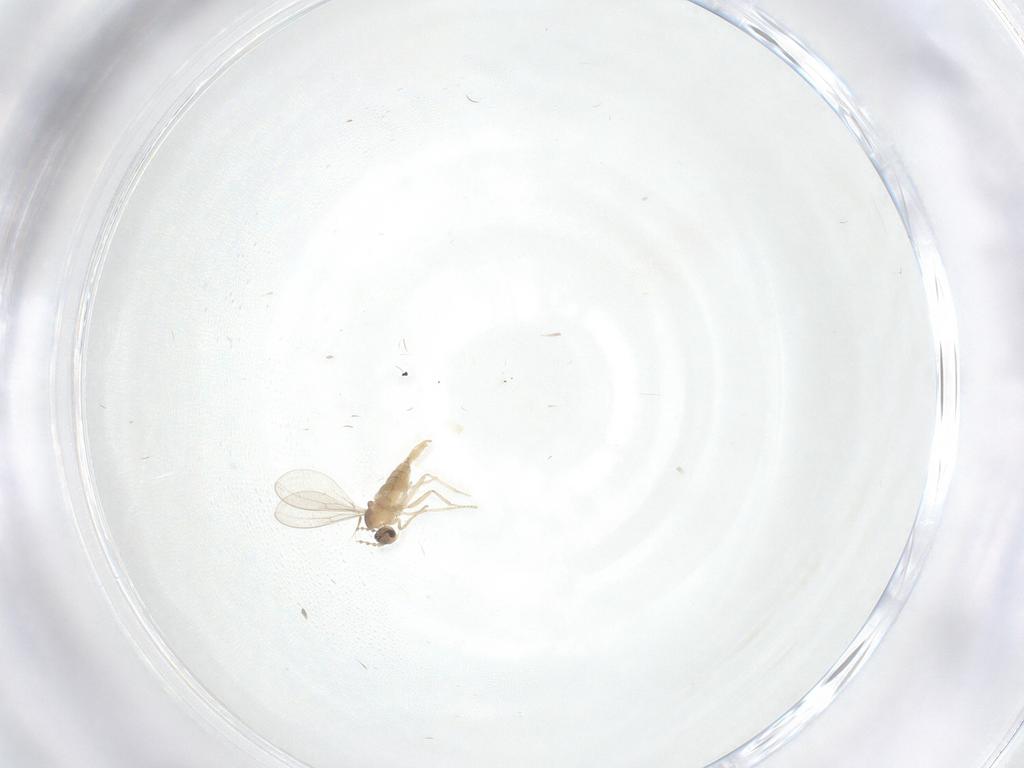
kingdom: Animalia
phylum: Arthropoda
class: Insecta
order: Diptera
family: Cecidomyiidae
